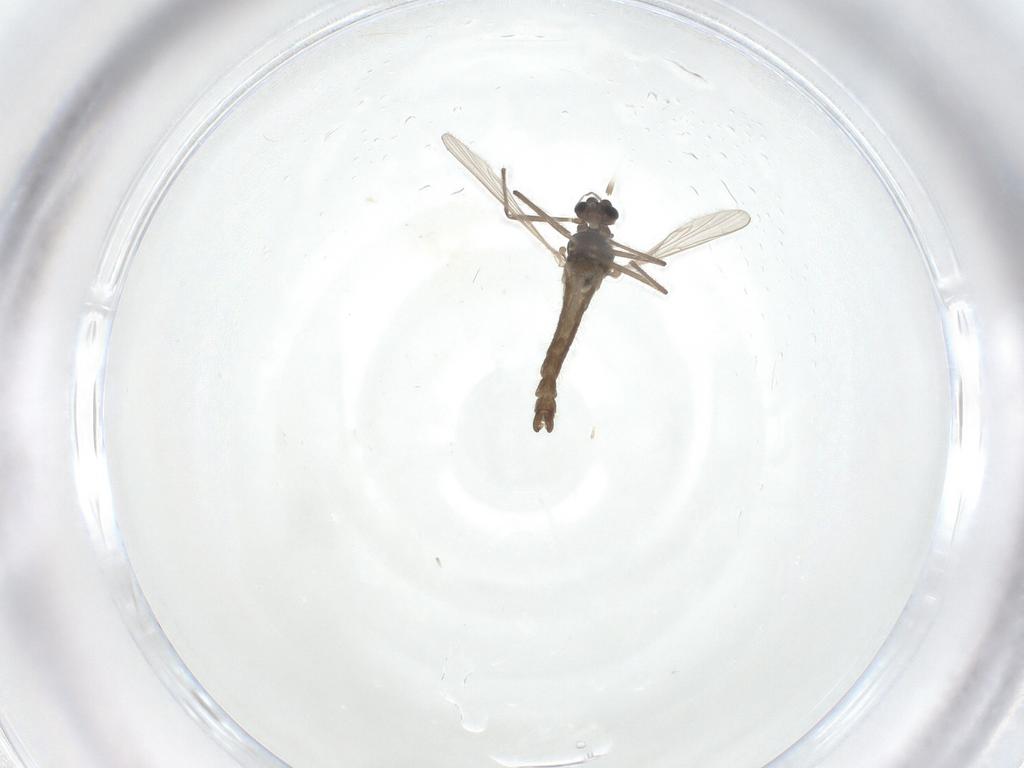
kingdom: Animalia
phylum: Arthropoda
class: Insecta
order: Diptera
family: Chironomidae
